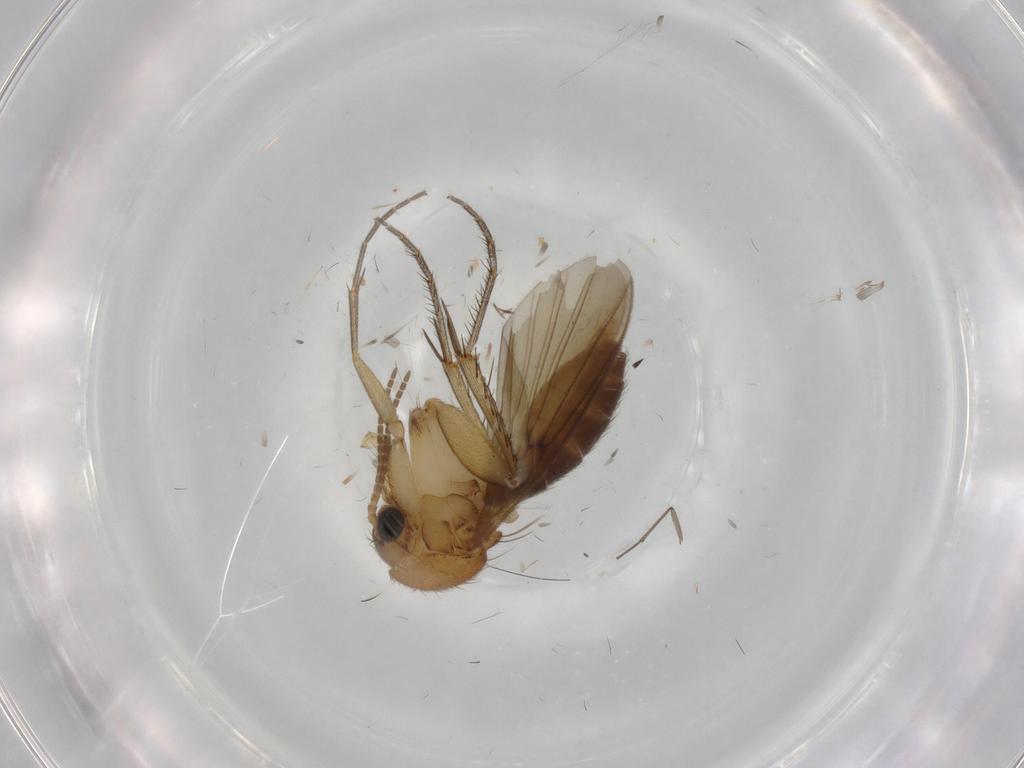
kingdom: Animalia
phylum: Arthropoda
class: Insecta
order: Diptera
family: Mycetophilidae
